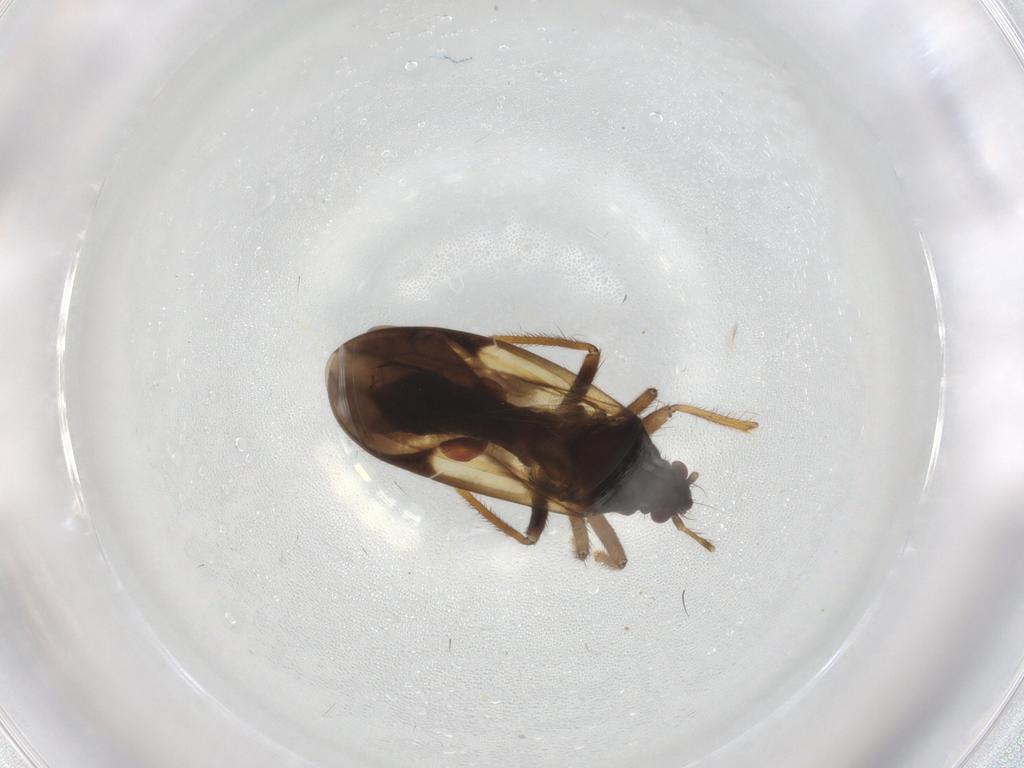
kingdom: Animalia
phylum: Arthropoda
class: Insecta
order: Hemiptera
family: Ceratocombidae
